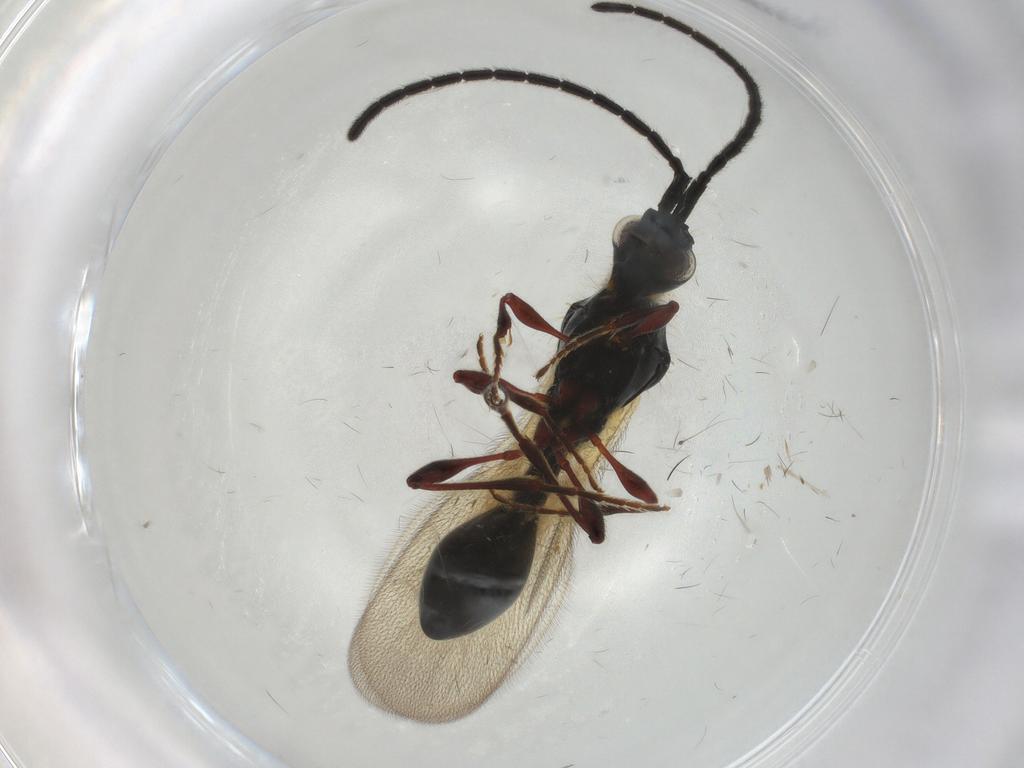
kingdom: Animalia
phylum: Arthropoda
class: Insecta
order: Hymenoptera
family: Diapriidae
